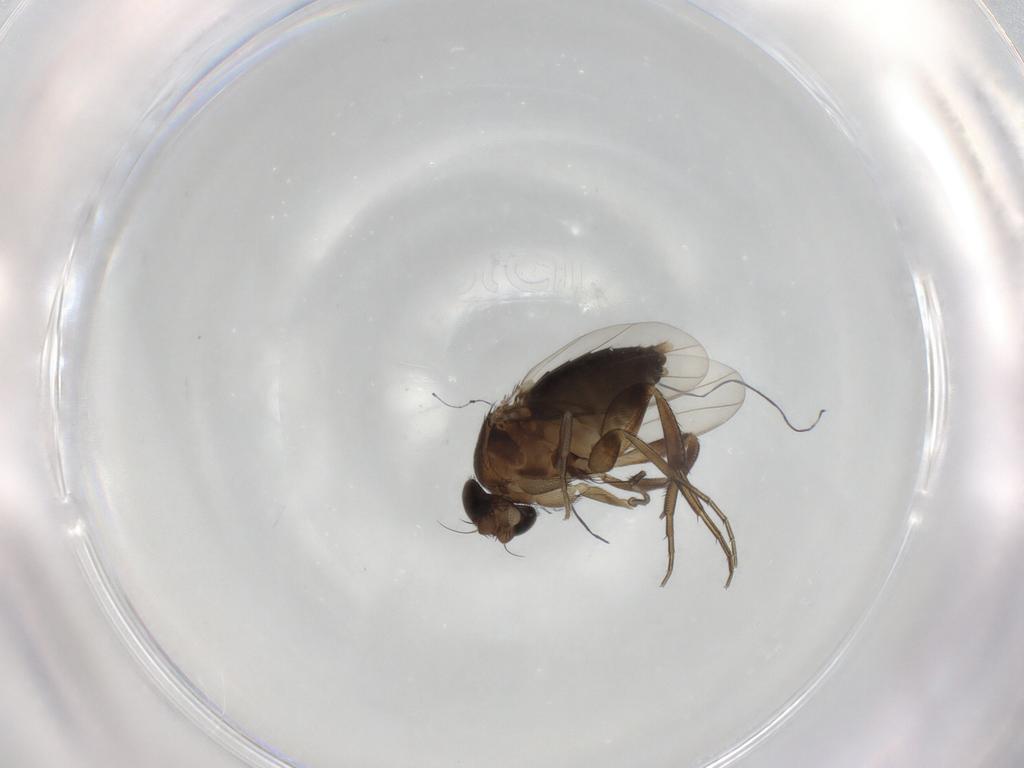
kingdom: Animalia
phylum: Arthropoda
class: Insecta
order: Diptera
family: Phoridae
